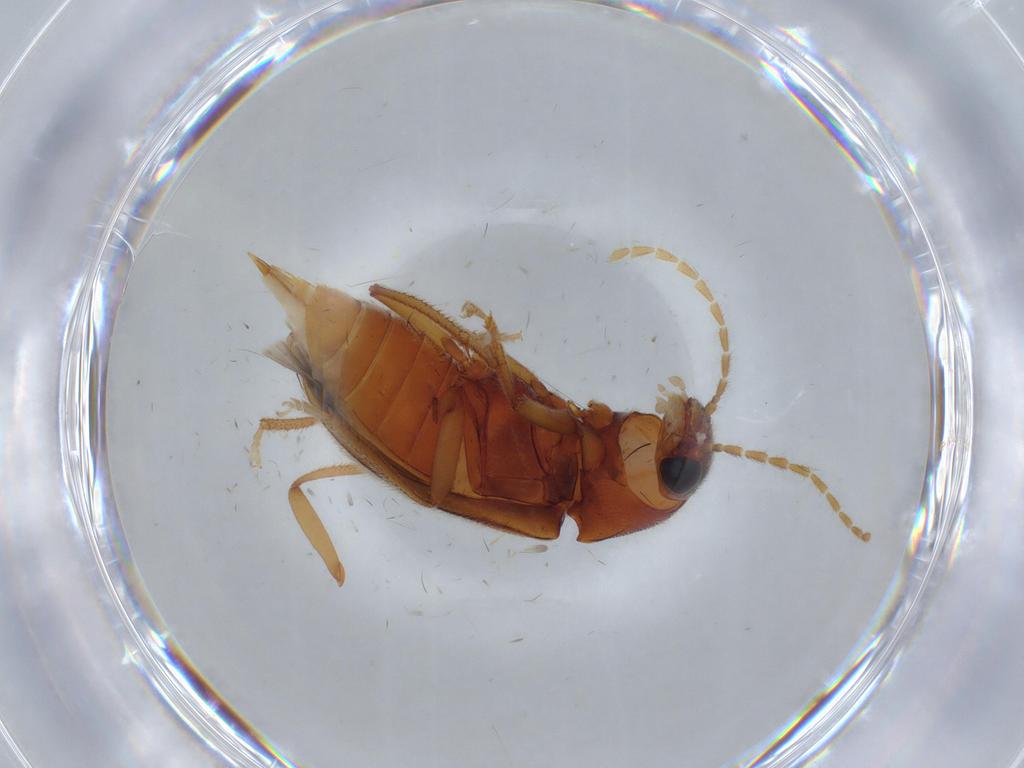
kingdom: Animalia
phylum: Arthropoda
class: Insecta
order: Coleoptera
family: Ptilodactylidae
